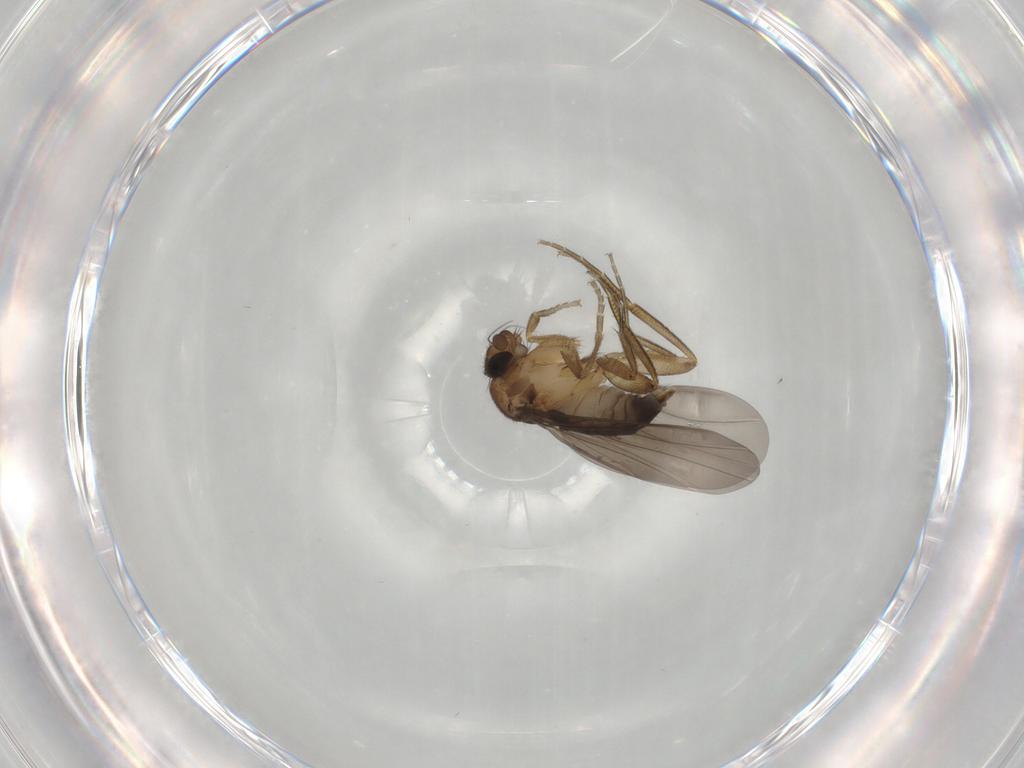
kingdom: Animalia
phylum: Arthropoda
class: Insecta
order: Diptera
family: Phoridae
